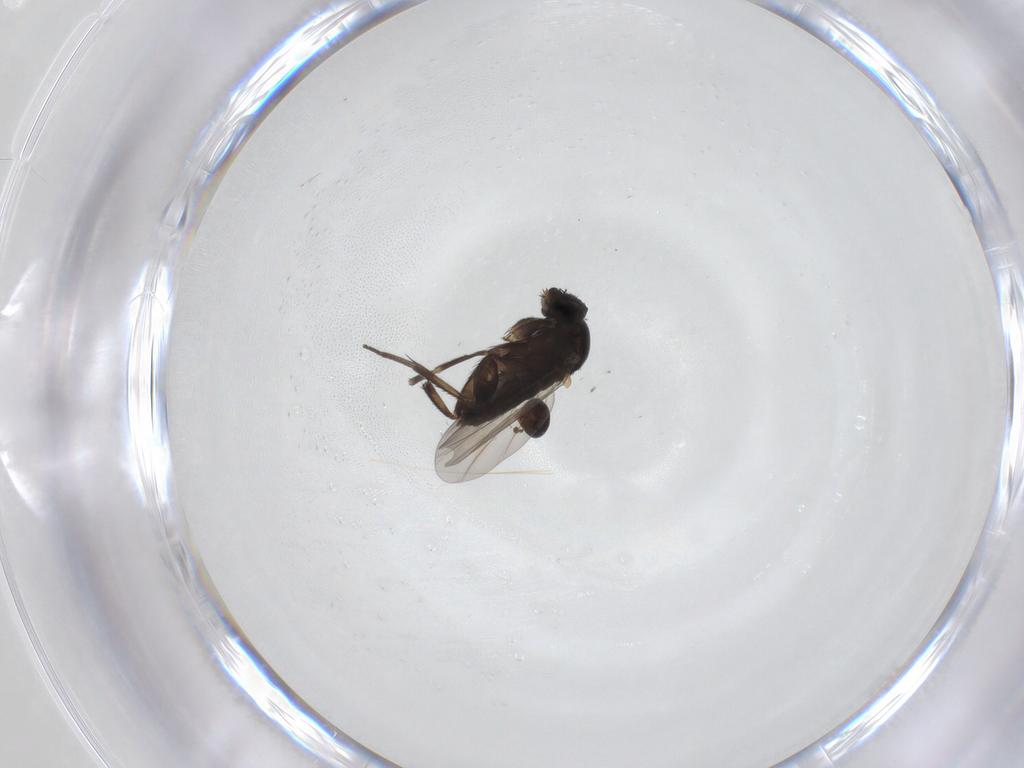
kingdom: Animalia
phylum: Arthropoda
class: Insecta
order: Diptera
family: Phoridae
